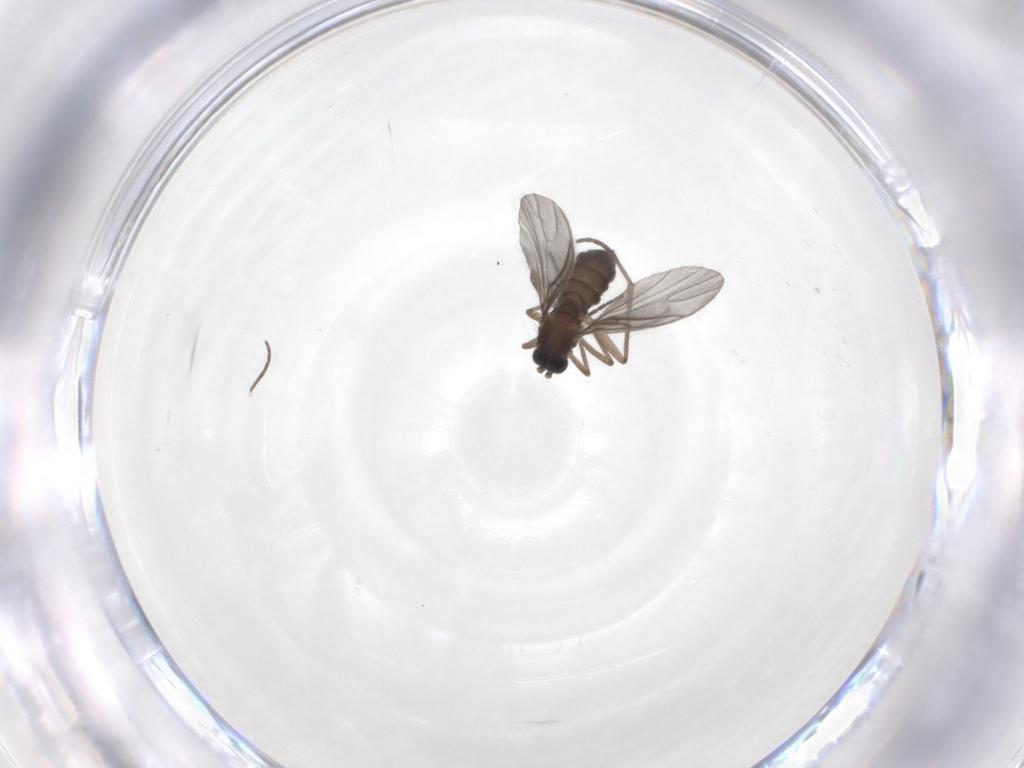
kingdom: Animalia
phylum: Arthropoda
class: Insecta
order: Diptera
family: Sciaridae
